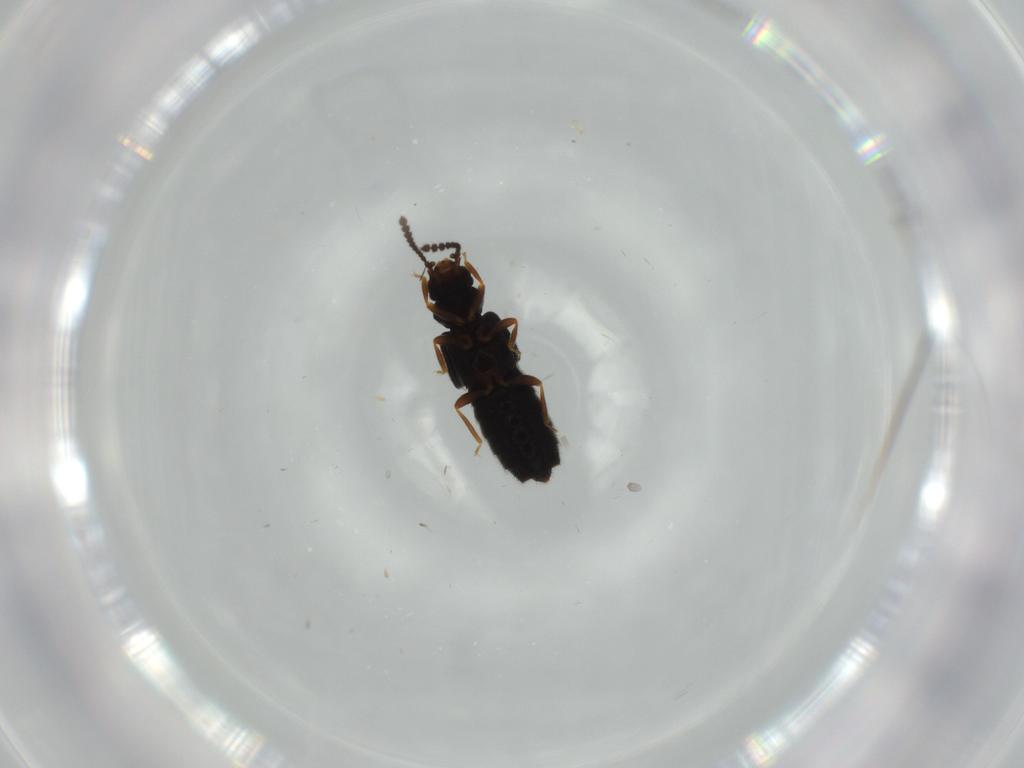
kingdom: Animalia
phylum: Arthropoda
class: Insecta
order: Coleoptera
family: Staphylinidae
